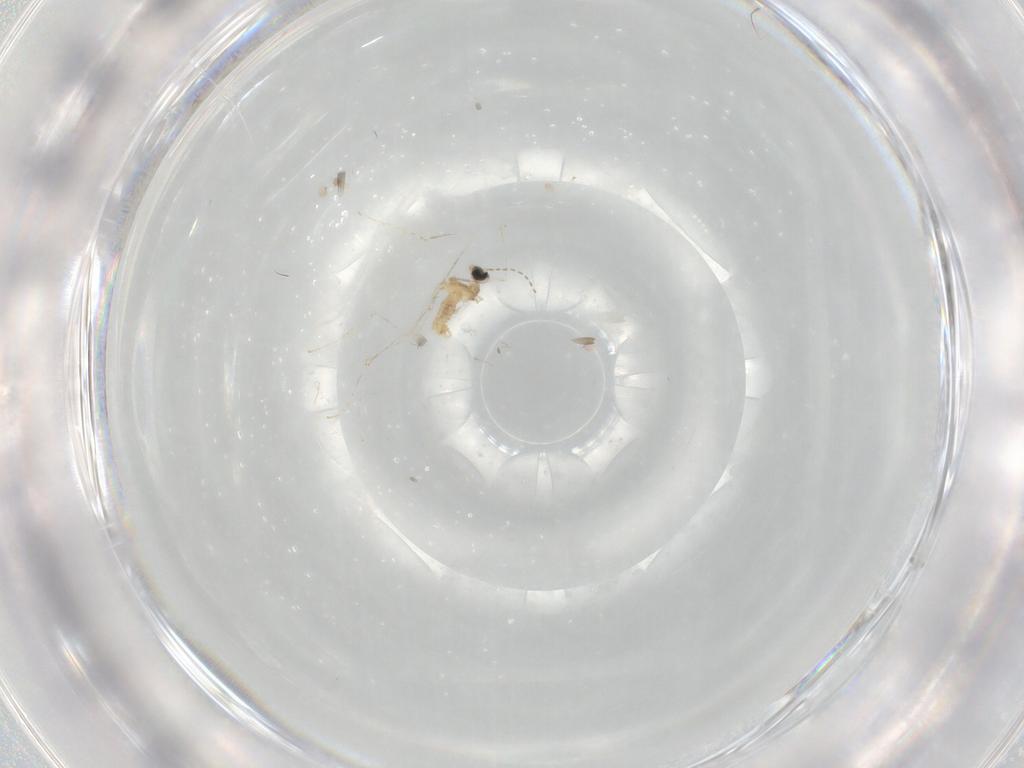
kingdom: Animalia
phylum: Arthropoda
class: Insecta
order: Diptera
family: Cecidomyiidae
